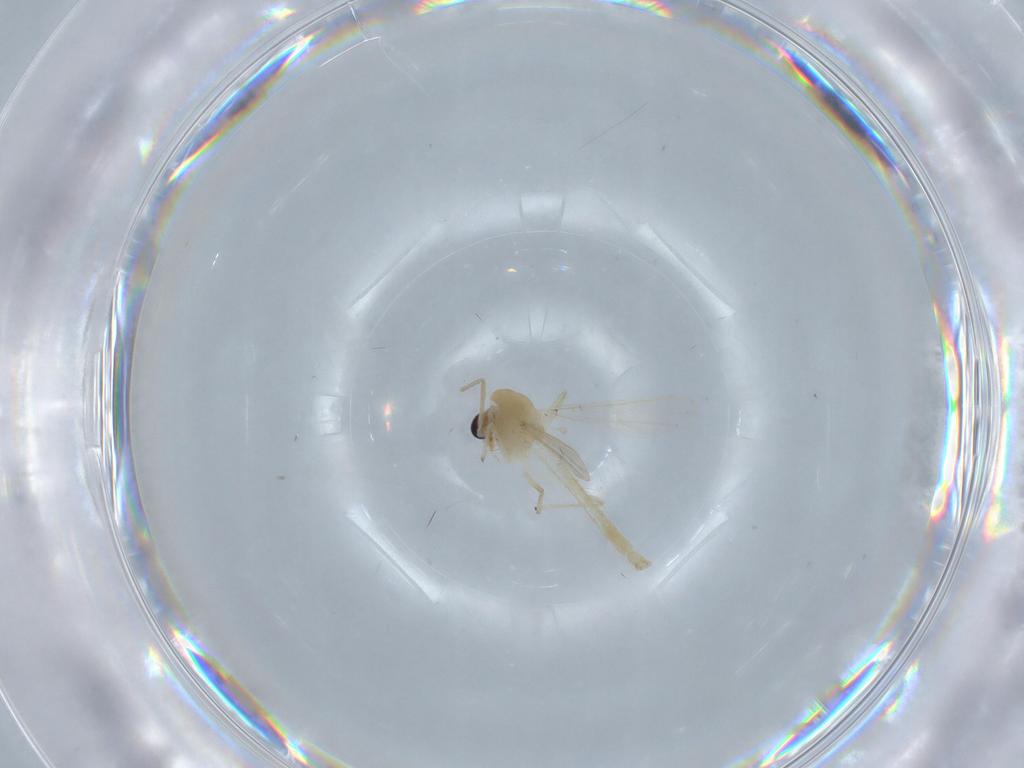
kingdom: Animalia
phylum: Arthropoda
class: Insecta
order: Diptera
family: Chironomidae
